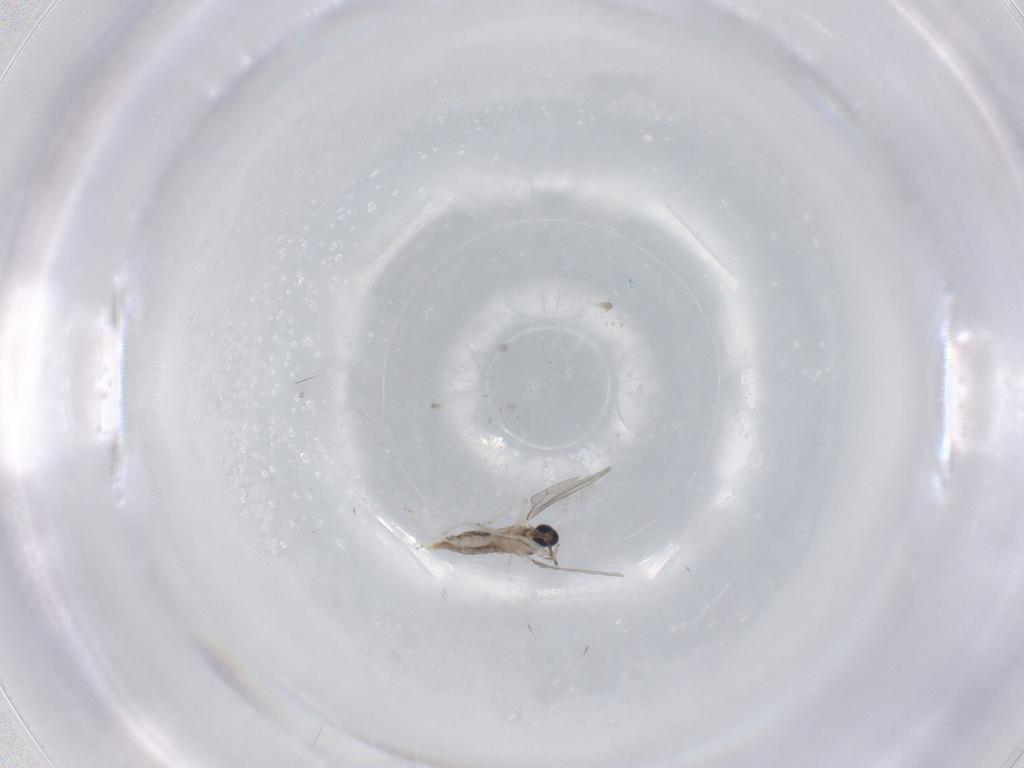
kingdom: Animalia
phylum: Arthropoda
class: Insecta
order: Diptera
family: Cecidomyiidae
